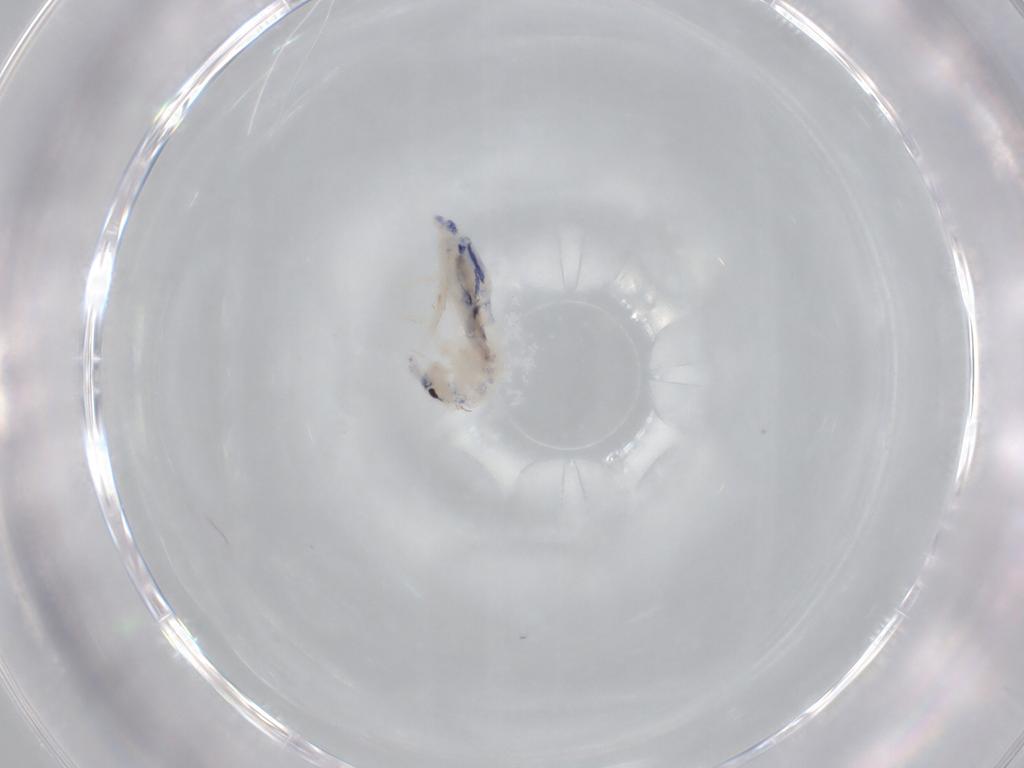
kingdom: Animalia
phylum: Arthropoda
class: Collembola
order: Entomobryomorpha
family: Entomobryidae
